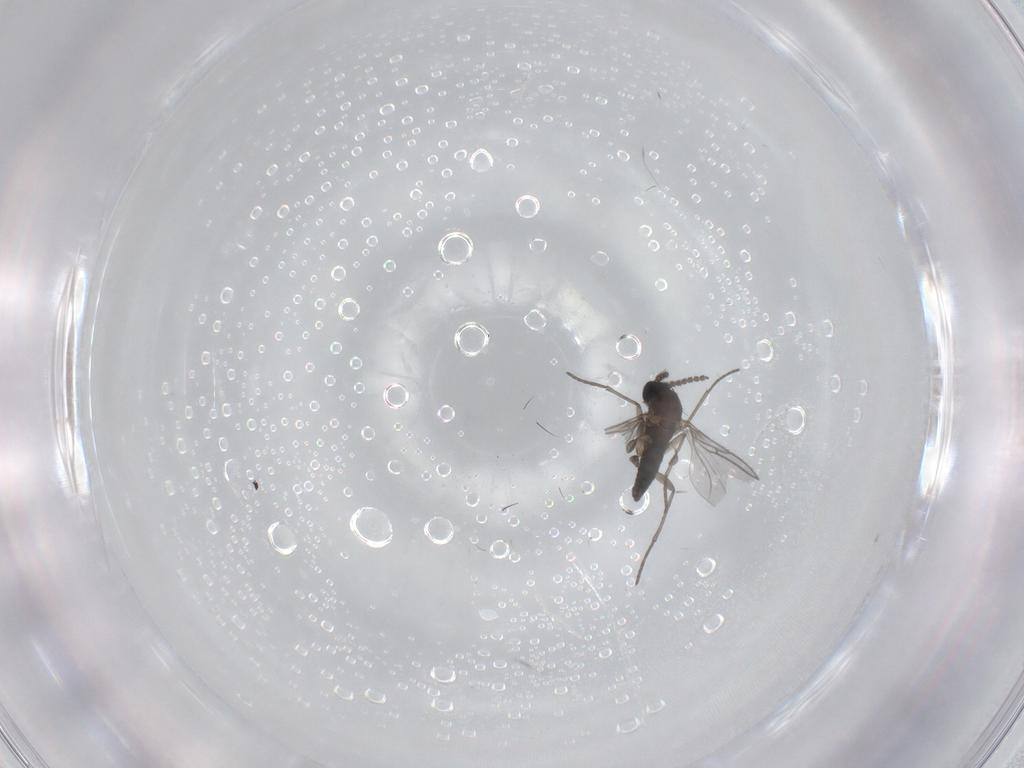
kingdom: Animalia
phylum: Arthropoda
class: Insecta
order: Diptera
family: Sciaridae
